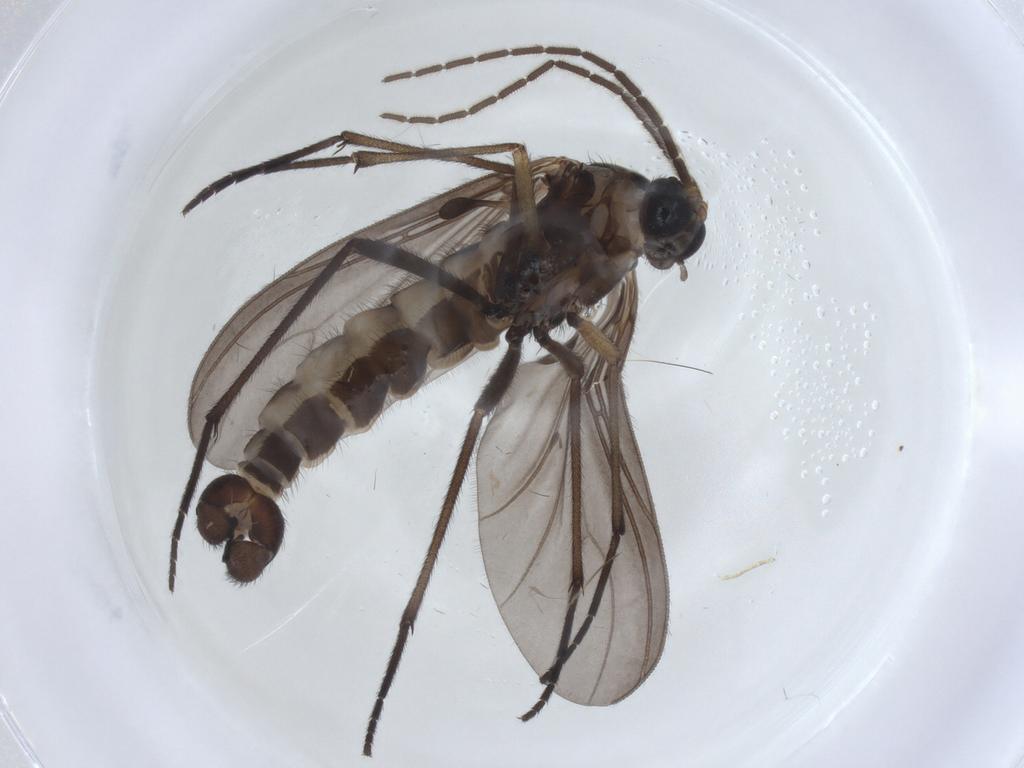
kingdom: Animalia
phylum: Arthropoda
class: Insecta
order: Diptera
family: Sciaridae
